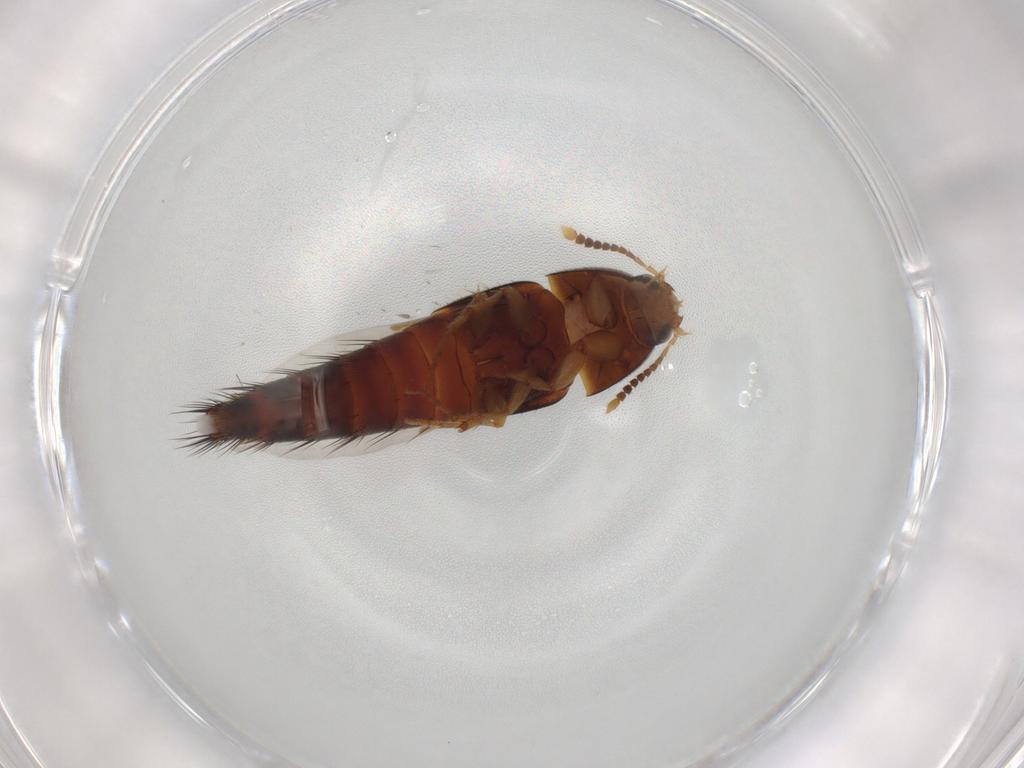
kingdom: Animalia
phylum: Arthropoda
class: Insecta
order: Coleoptera
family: Staphylinidae
